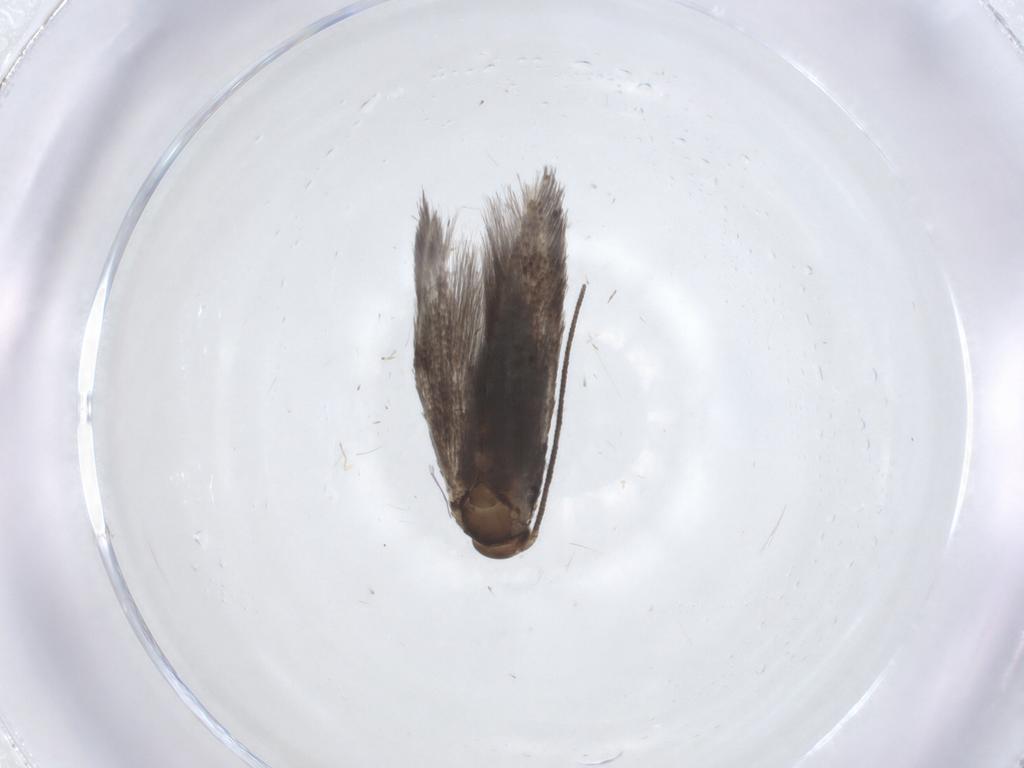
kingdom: Animalia
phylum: Arthropoda
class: Insecta
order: Lepidoptera
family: Elachistidae
